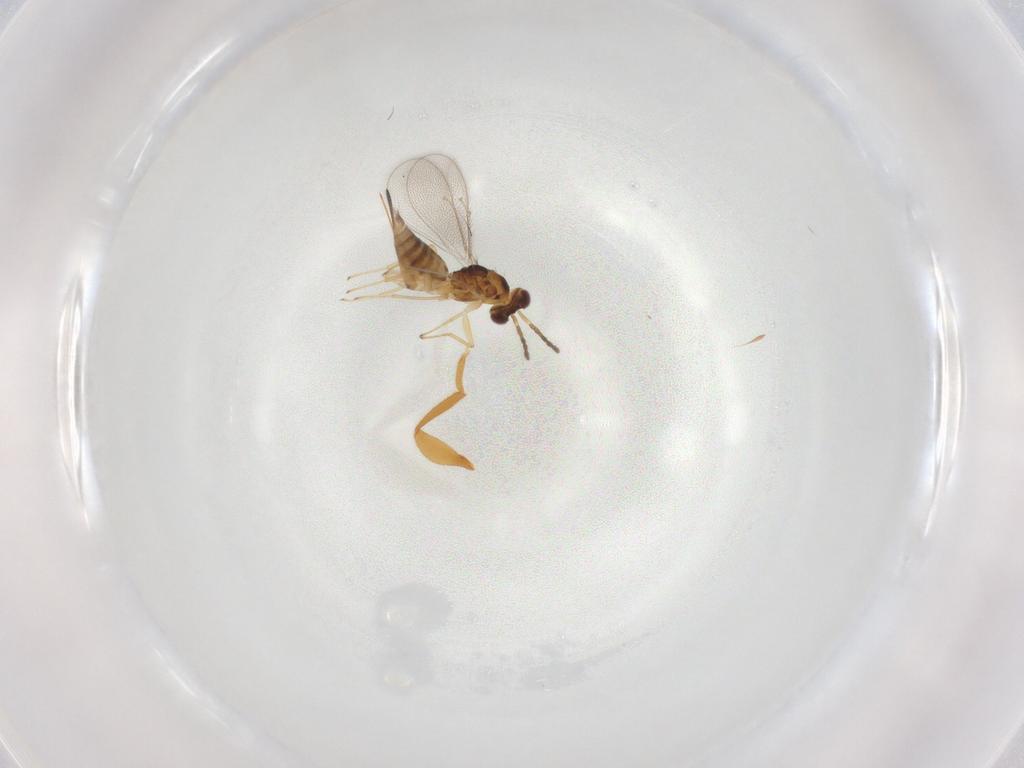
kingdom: Animalia
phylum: Arthropoda
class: Insecta
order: Hymenoptera
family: Eulophidae
